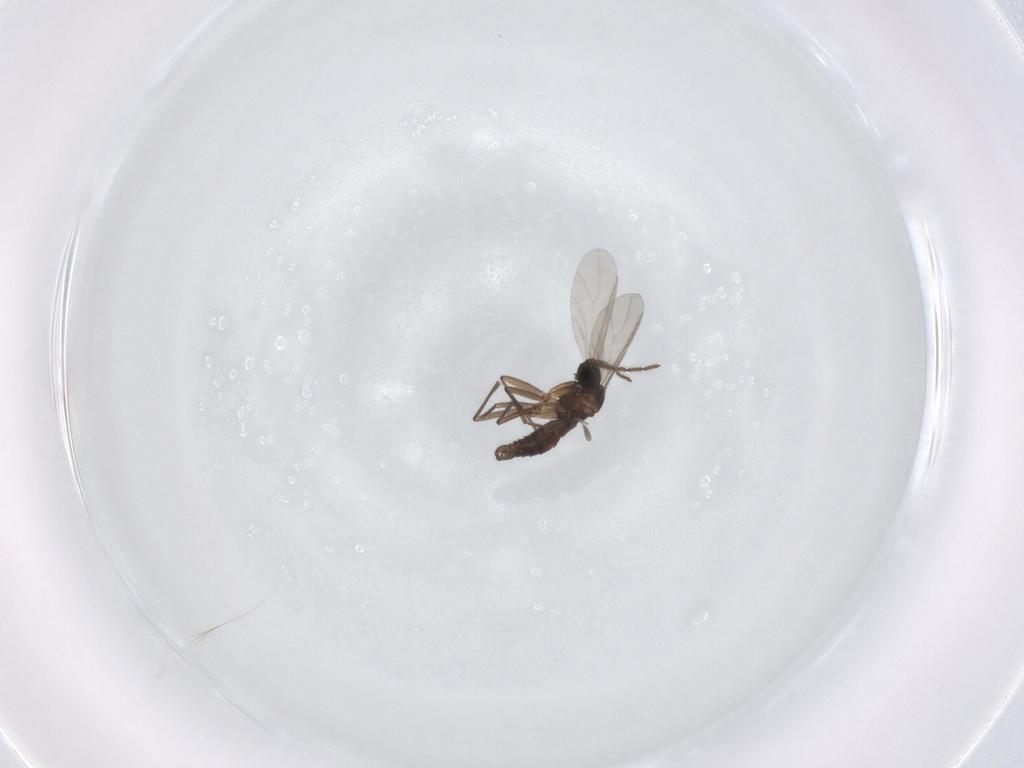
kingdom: Animalia
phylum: Arthropoda
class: Insecta
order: Diptera
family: Sciaridae
